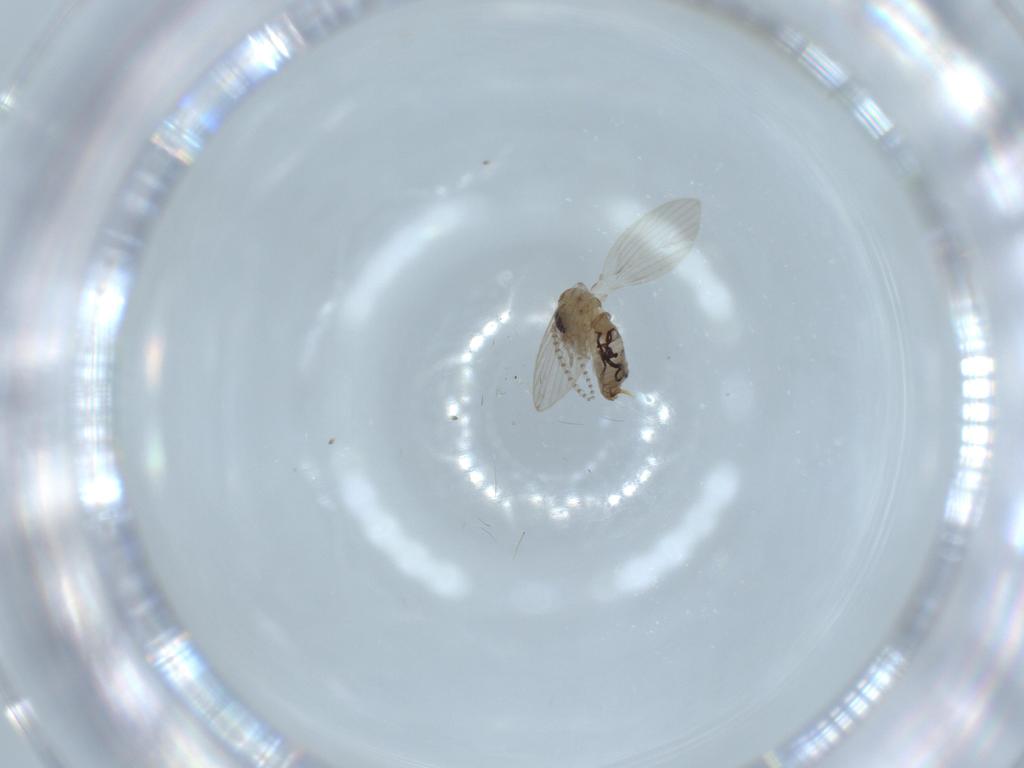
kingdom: Animalia
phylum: Arthropoda
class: Insecta
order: Diptera
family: Psychodidae
